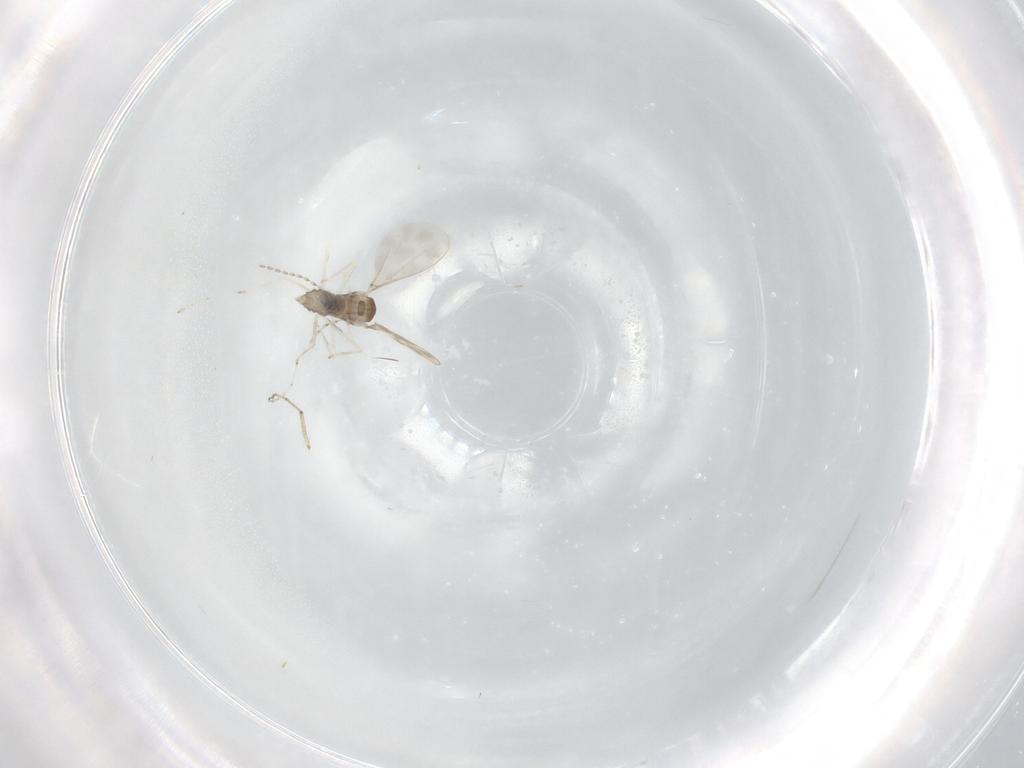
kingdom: Animalia
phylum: Arthropoda
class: Insecta
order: Diptera
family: Cecidomyiidae
